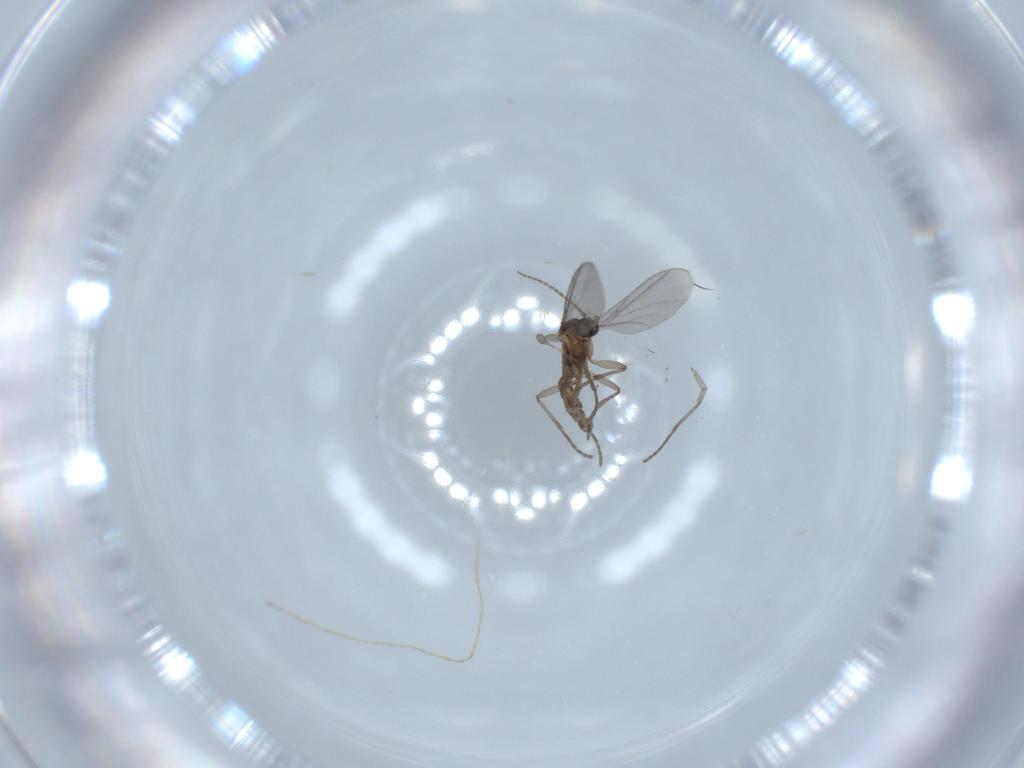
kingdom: Animalia
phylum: Arthropoda
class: Insecta
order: Diptera
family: Sciaridae
